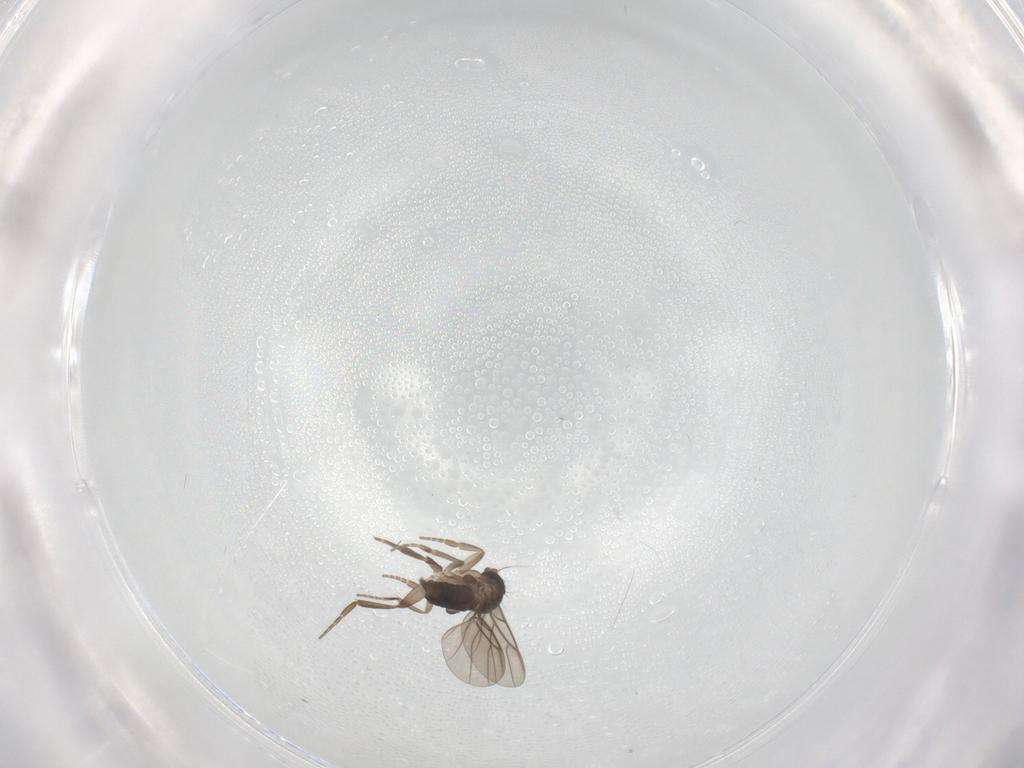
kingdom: Animalia
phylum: Arthropoda
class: Insecta
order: Diptera
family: Phoridae
